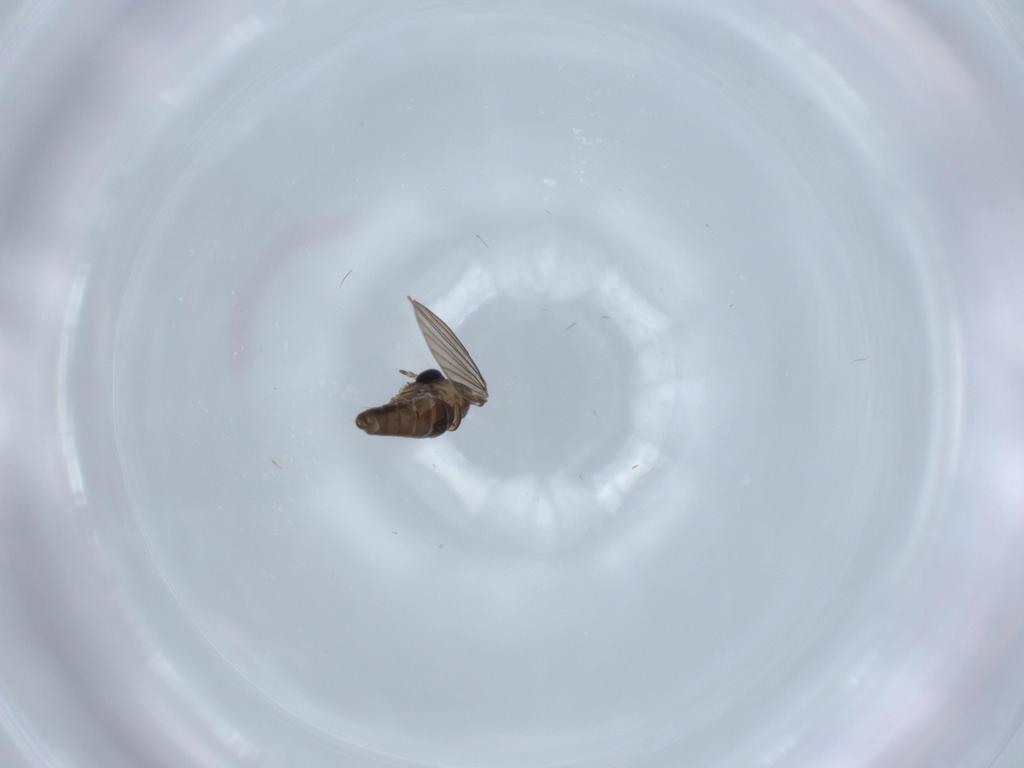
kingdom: Animalia
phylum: Arthropoda
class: Insecta
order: Diptera
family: Psychodidae
